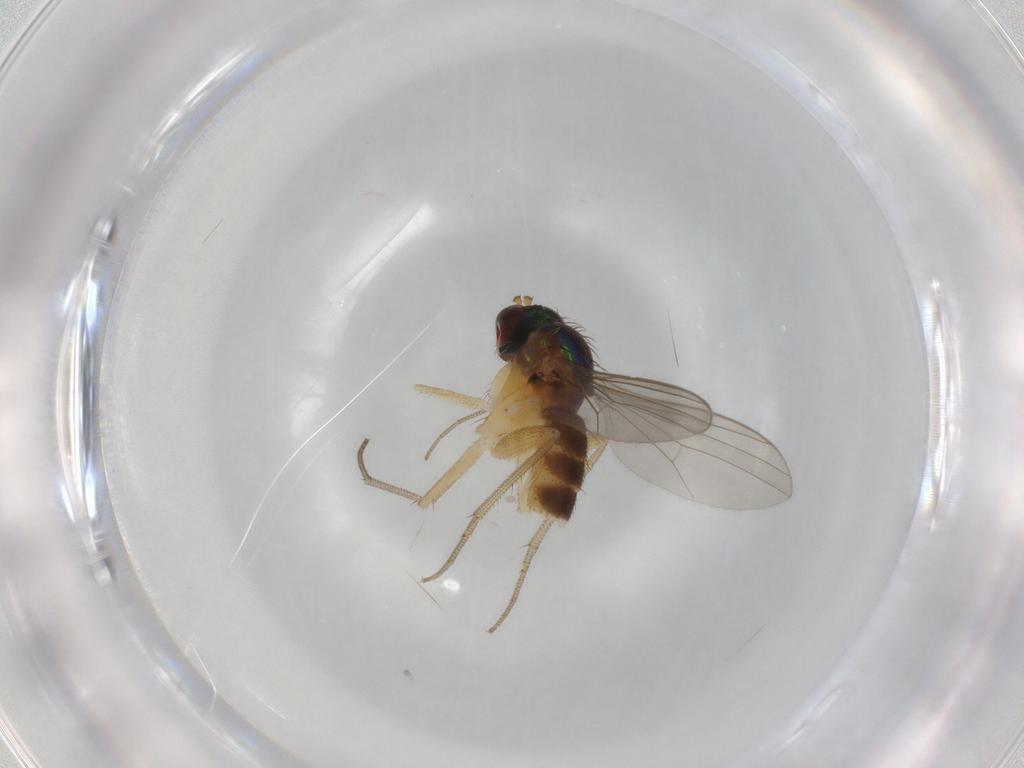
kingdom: Animalia
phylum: Arthropoda
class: Insecta
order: Diptera
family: Dolichopodidae
